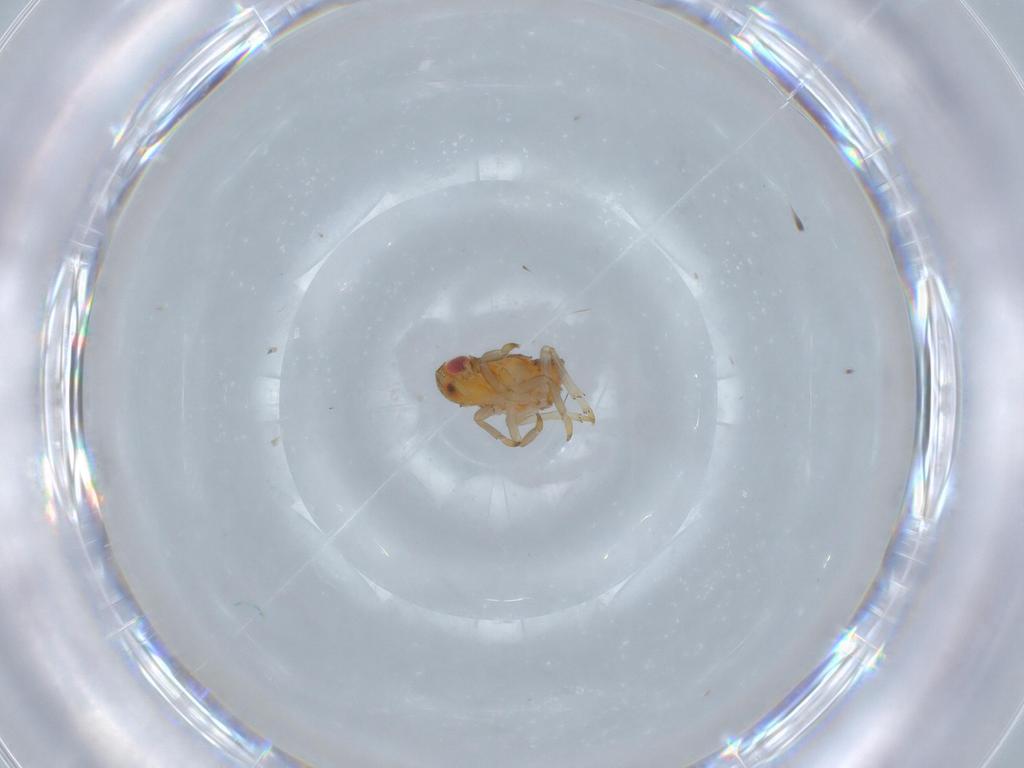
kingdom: Animalia
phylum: Arthropoda
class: Insecta
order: Hemiptera
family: Fulgoroidea_incertae_sedis
